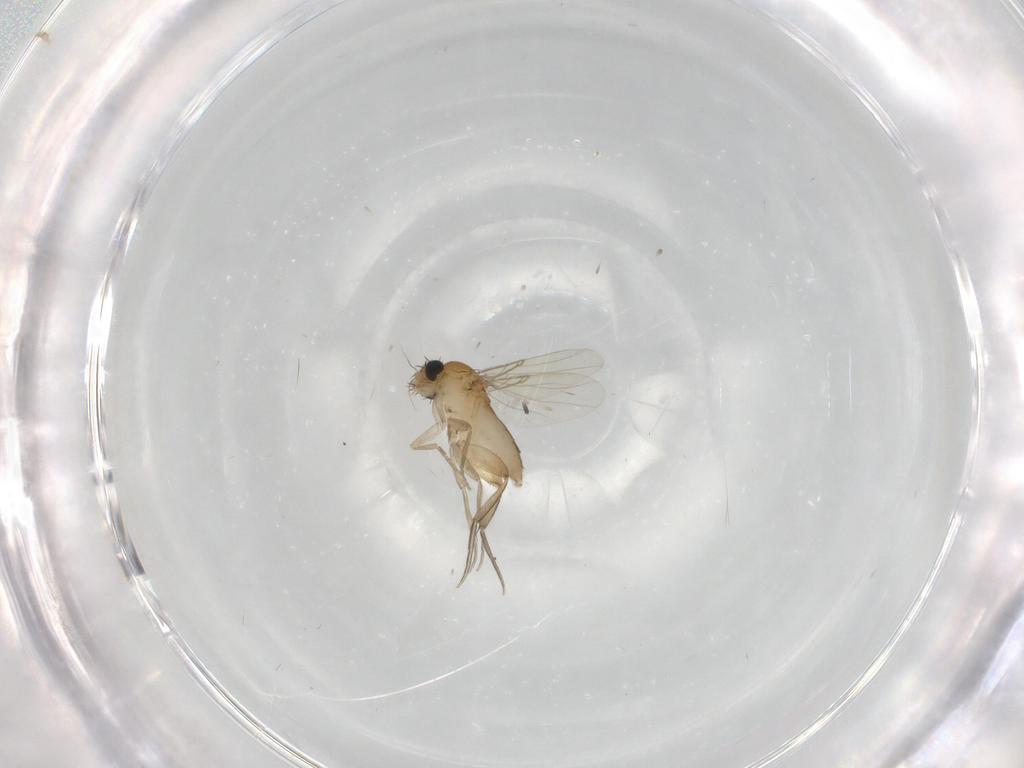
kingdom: Animalia
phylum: Arthropoda
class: Insecta
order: Diptera
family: Phoridae
